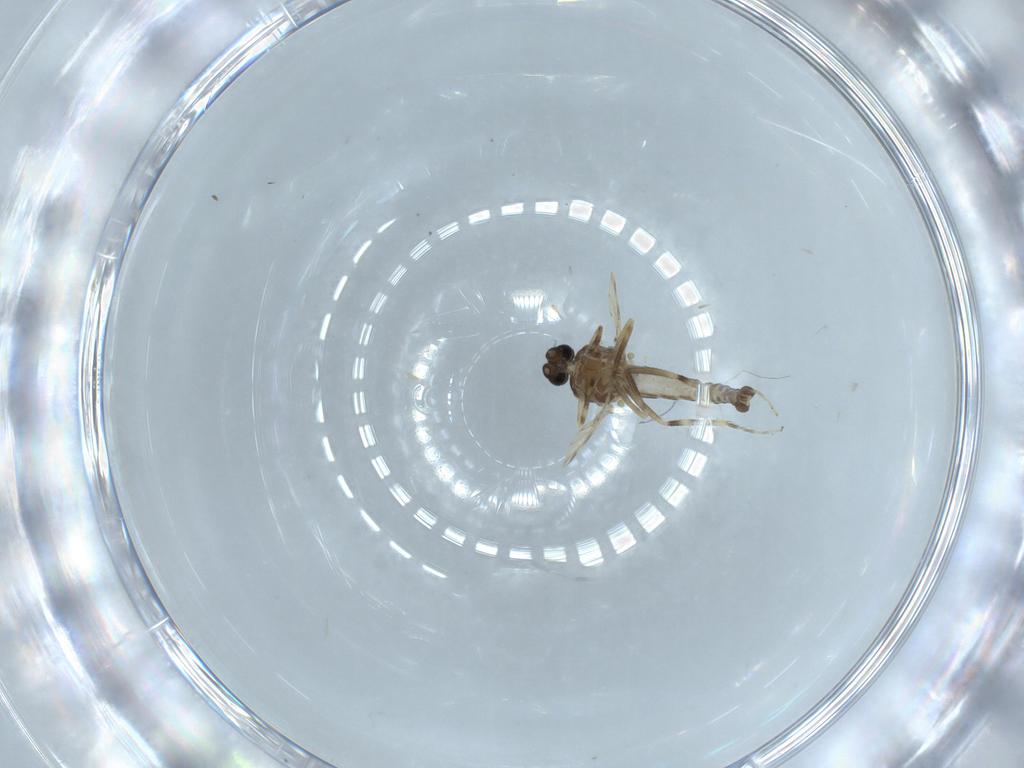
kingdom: Animalia
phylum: Arthropoda
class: Insecta
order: Diptera
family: Ceratopogonidae
